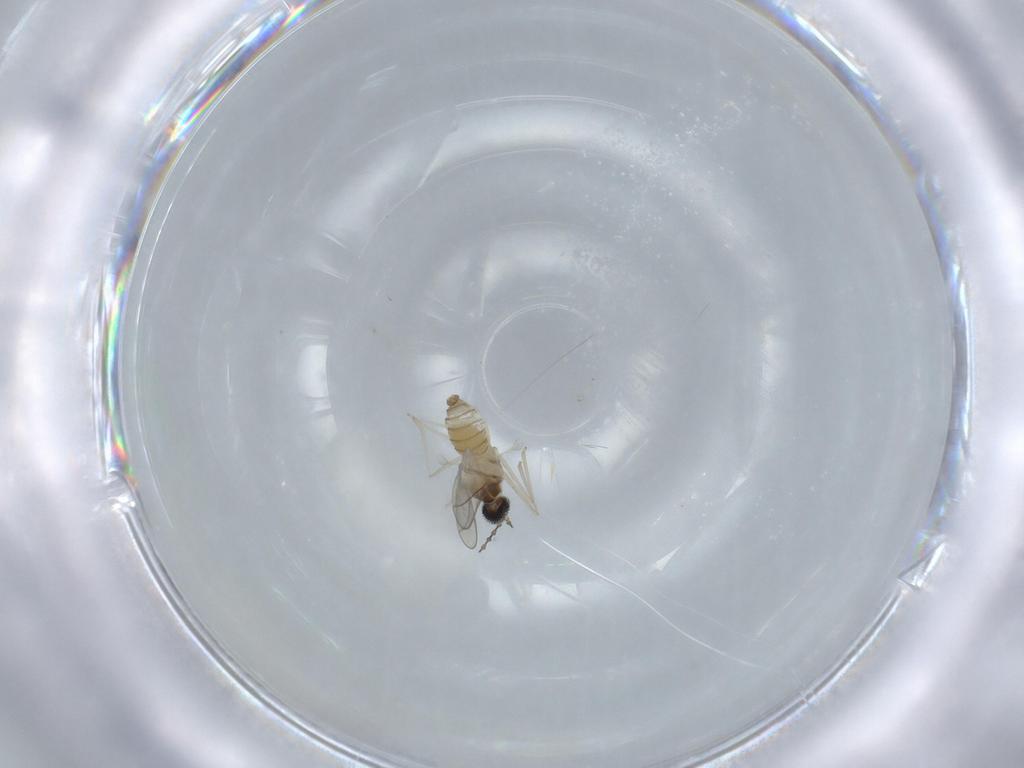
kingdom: Animalia
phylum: Arthropoda
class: Insecta
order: Diptera
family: Cecidomyiidae
